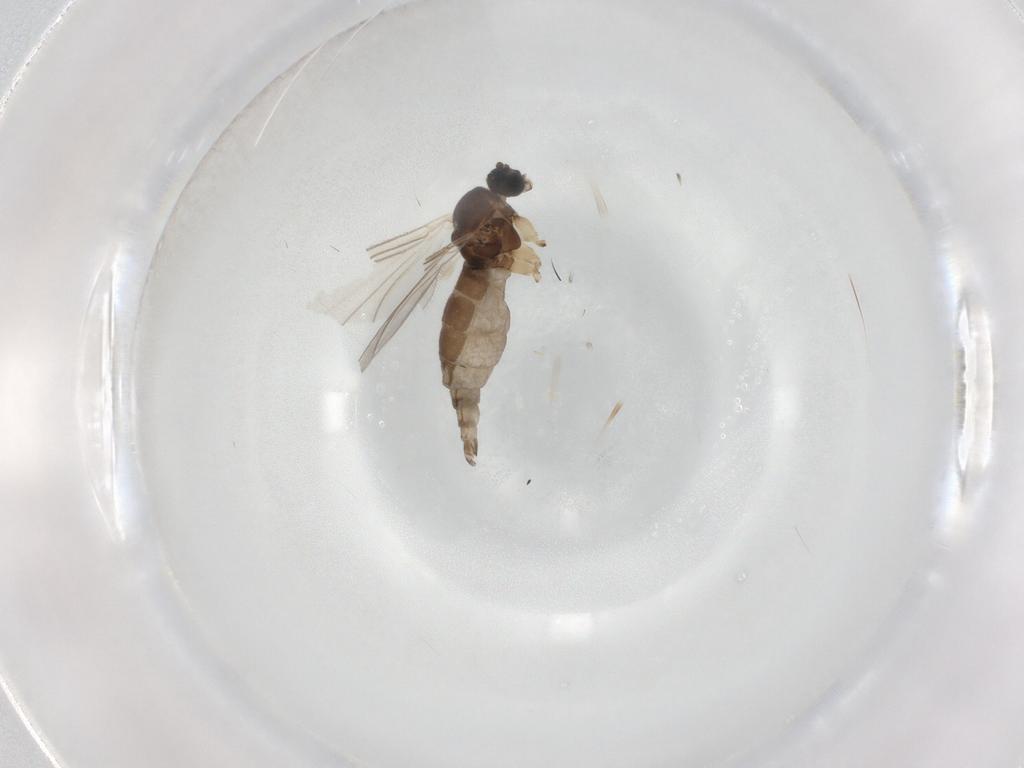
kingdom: Animalia
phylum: Arthropoda
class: Insecta
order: Diptera
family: Sciaridae
